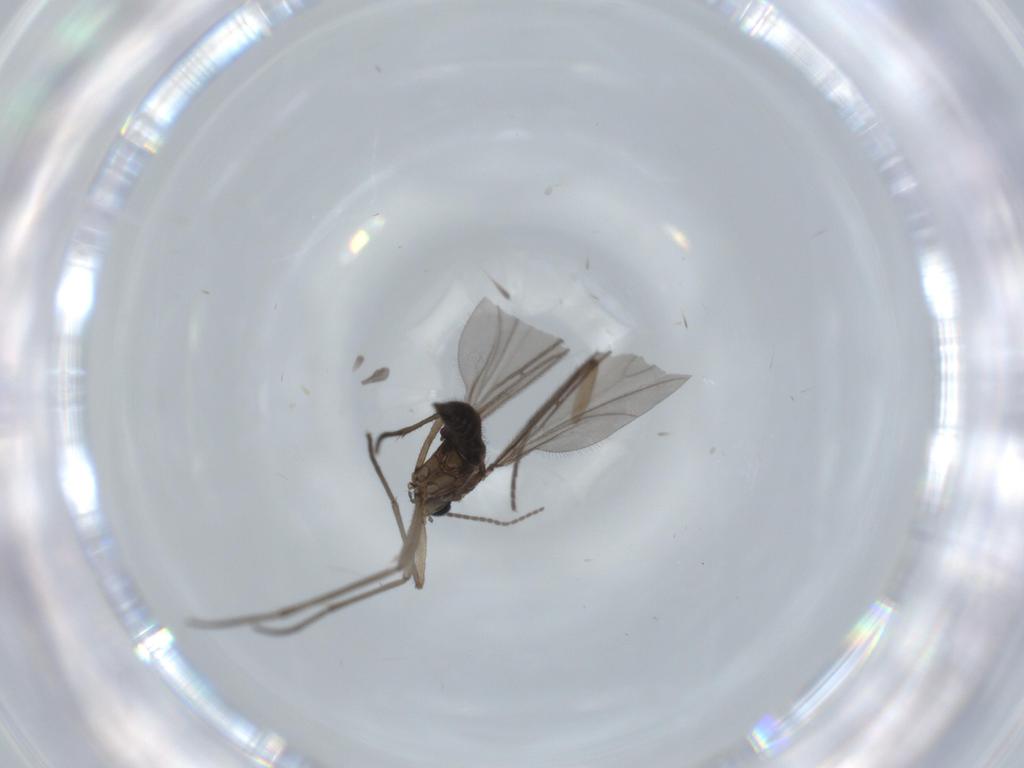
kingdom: Animalia
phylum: Arthropoda
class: Insecta
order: Diptera
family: Sciaridae
